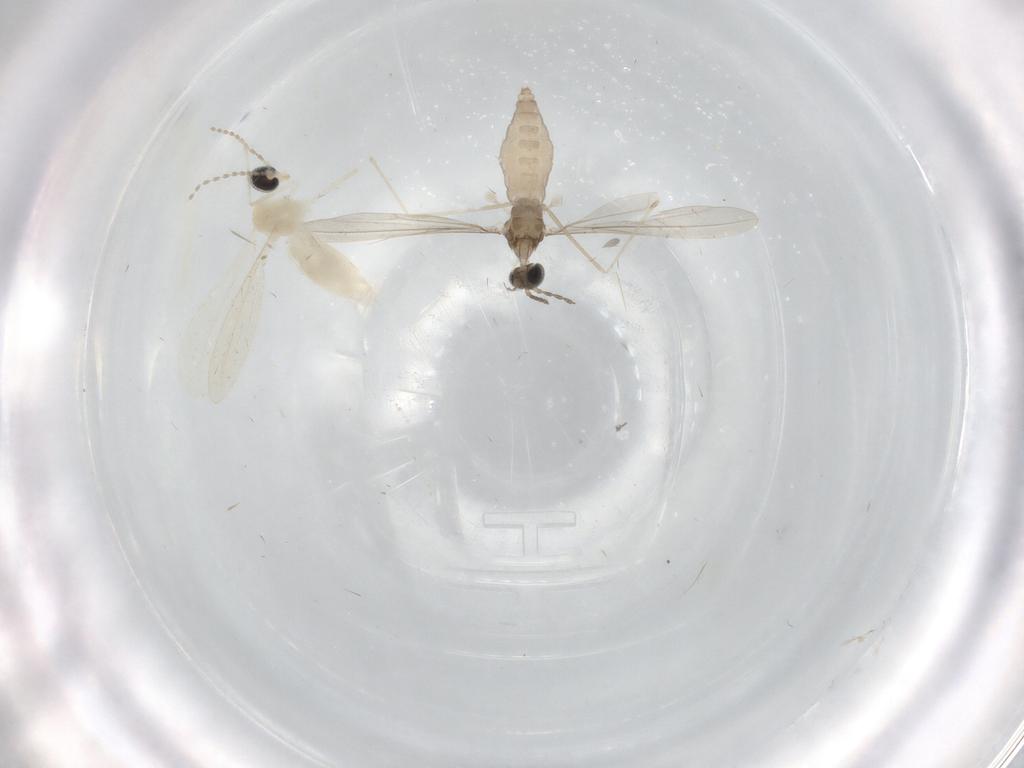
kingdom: Animalia
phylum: Arthropoda
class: Insecta
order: Diptera
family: Cecidomyiidae
